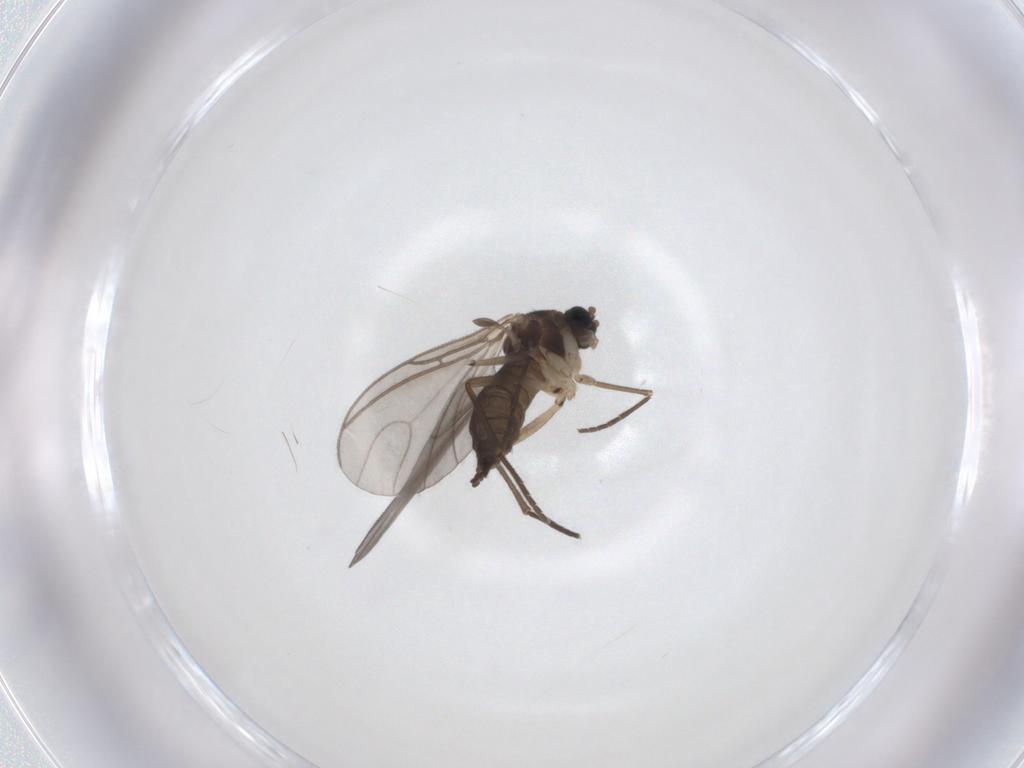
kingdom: Animalia
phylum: Arthropoda
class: Insecta
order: Diptera
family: Sciaridae
